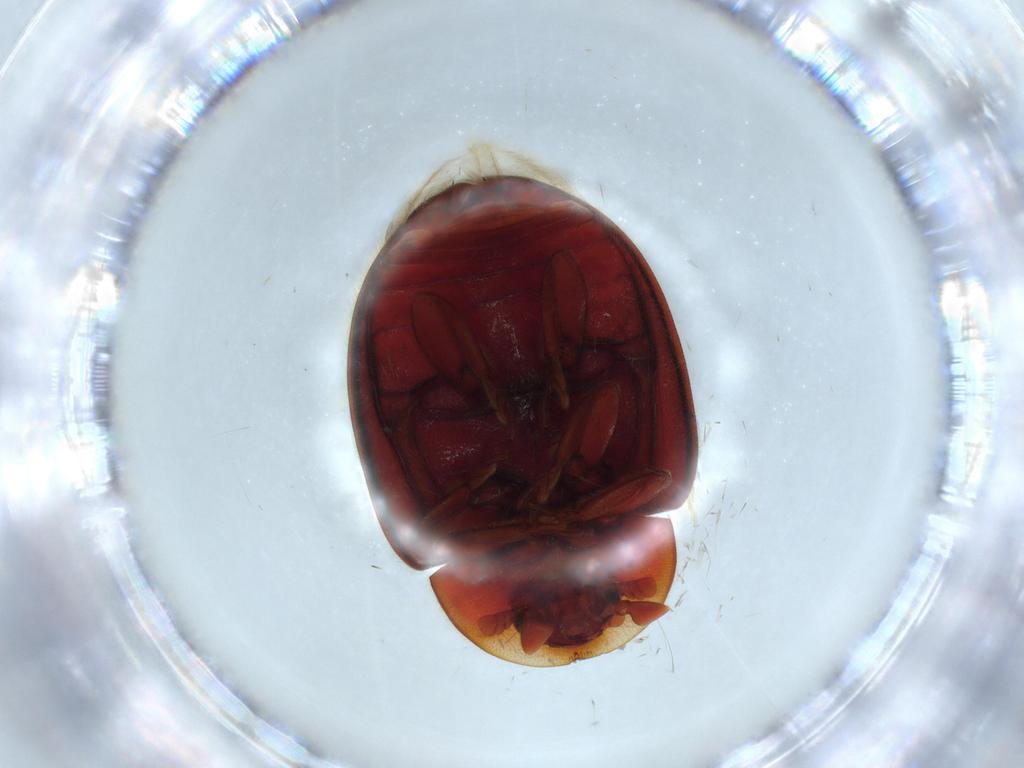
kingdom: Animalia
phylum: Arthropoda
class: Insecta
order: Coleoptera
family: Coccinellidae
